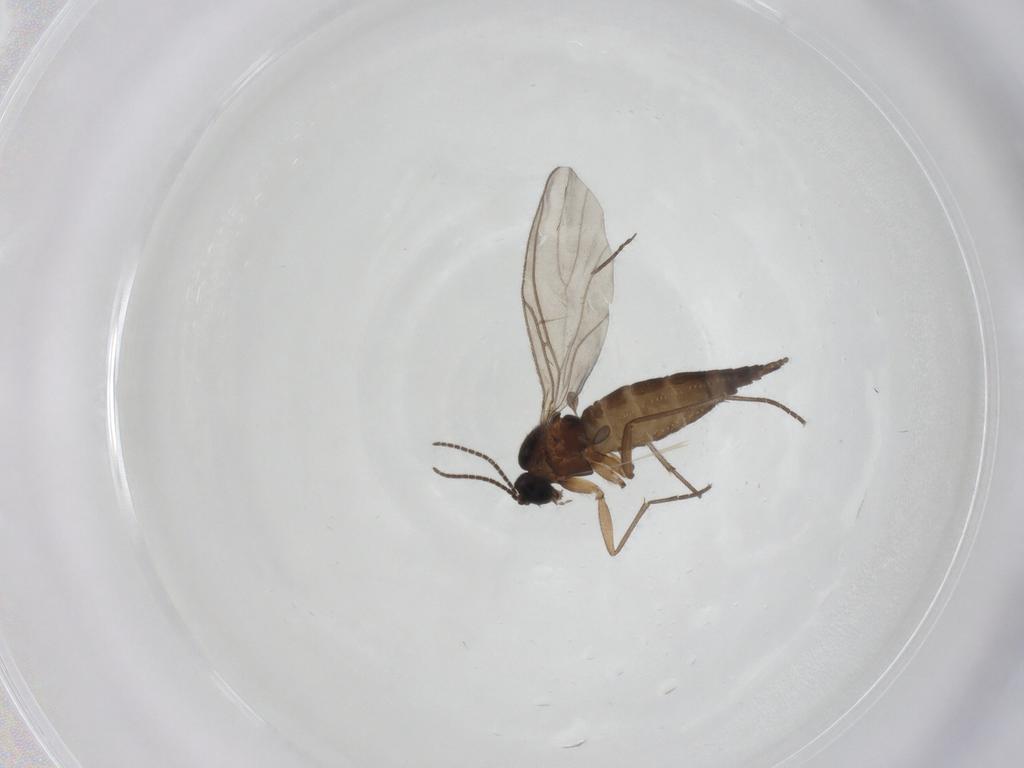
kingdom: Animalia
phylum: Arthropoda
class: Insecta
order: Diptera
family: Sciaridae
